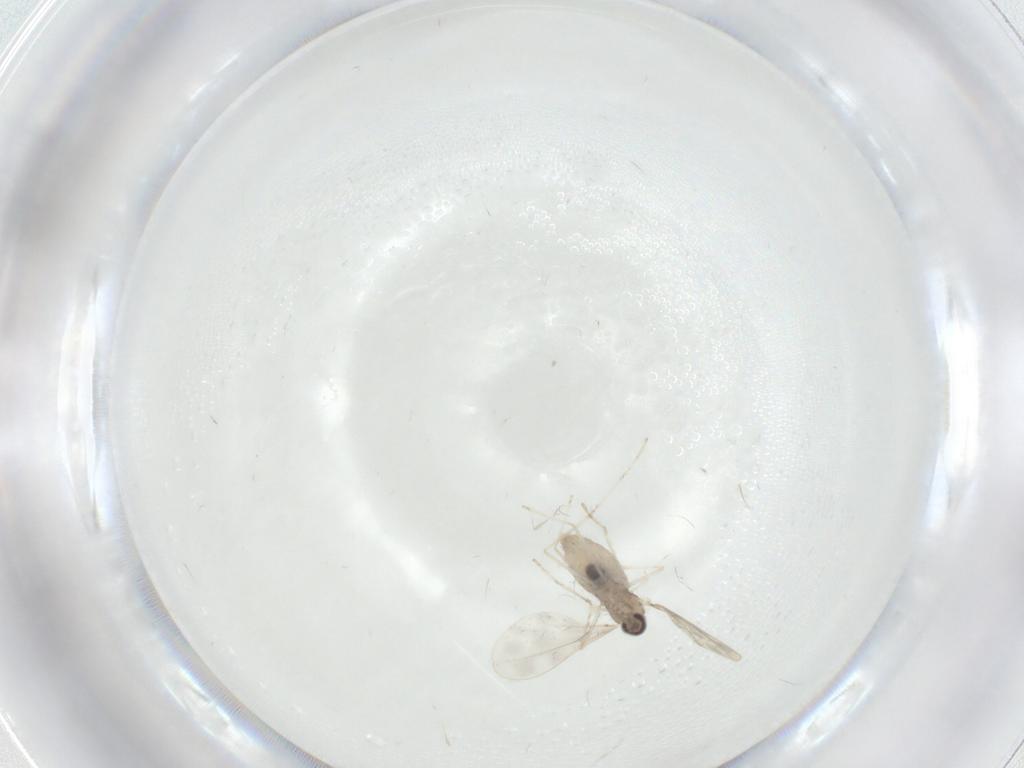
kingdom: Animalia
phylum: Arthropoda
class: Insecta
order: Diptera
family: Cecidomyiidae
